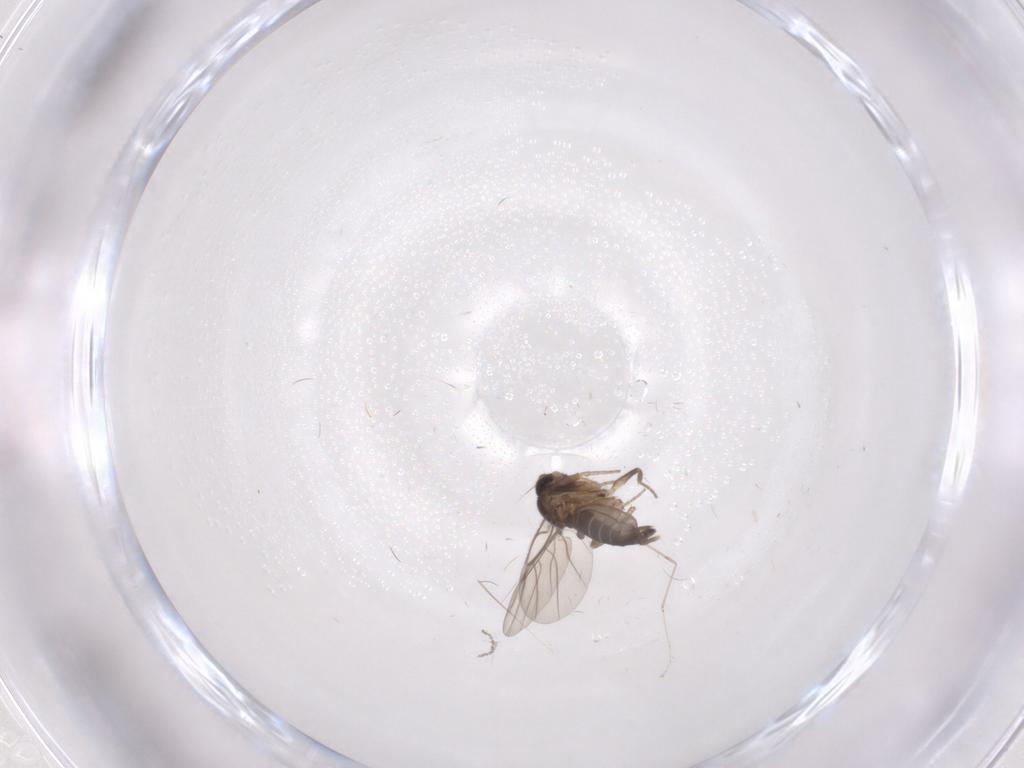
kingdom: Animalia
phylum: Arthropoda
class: Insecta
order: Diptera
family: Phoridae
